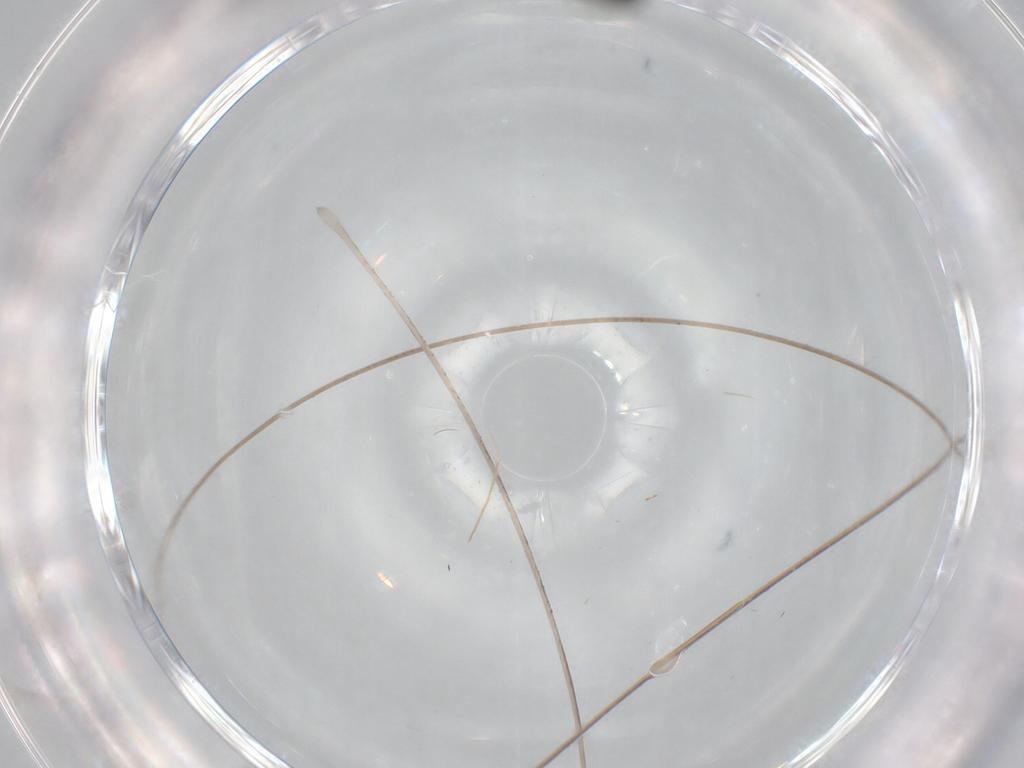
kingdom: Animalia
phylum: Arthropoda
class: Insecta
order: Hymenoptera
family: Scelionidae
